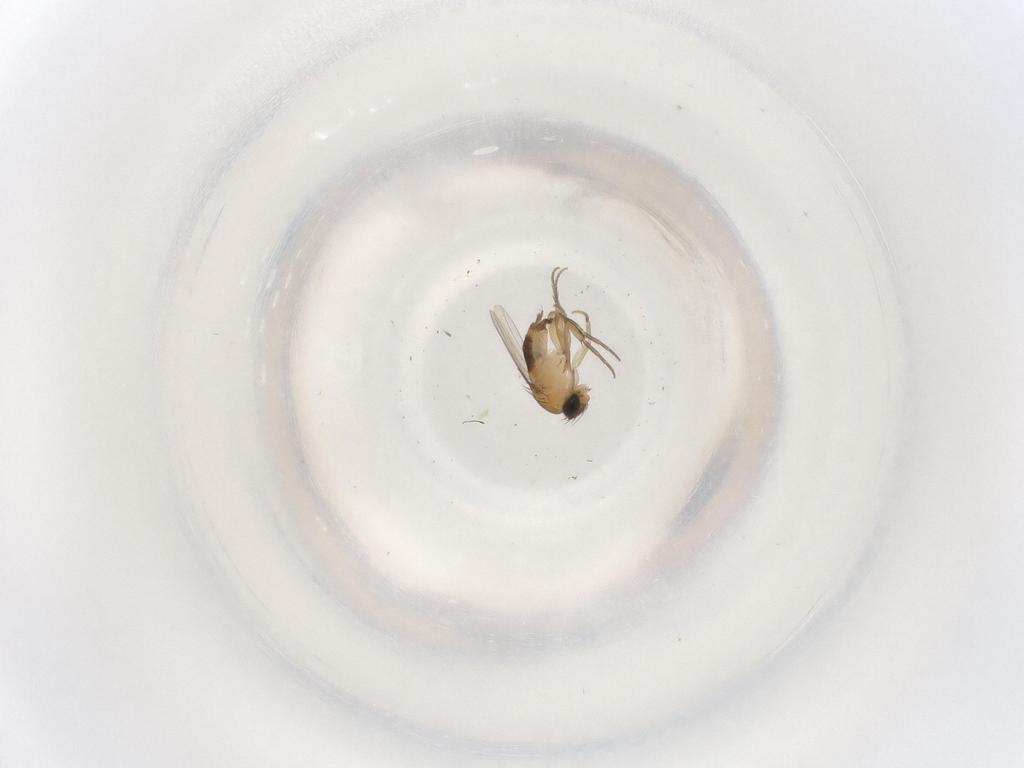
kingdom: Animalia
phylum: Arthropoda
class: Insecta
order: Diptera
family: Phoridae
